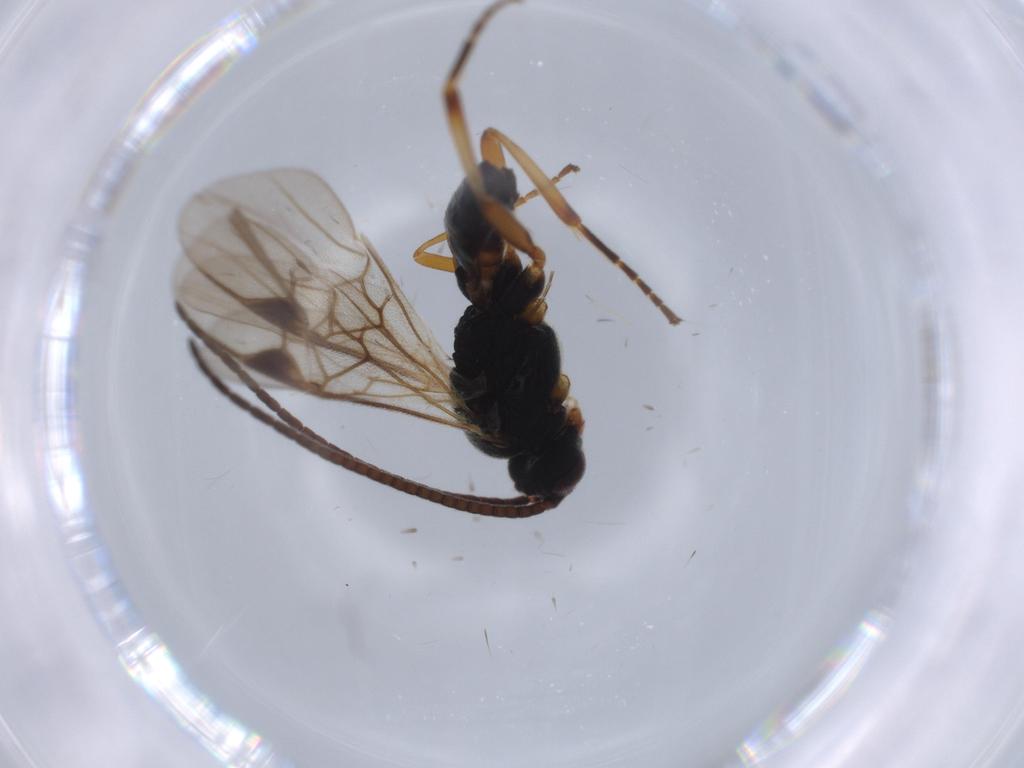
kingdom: Animalia
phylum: Arthropoda
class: Insecta
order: Hymenoptera
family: Braconidae
